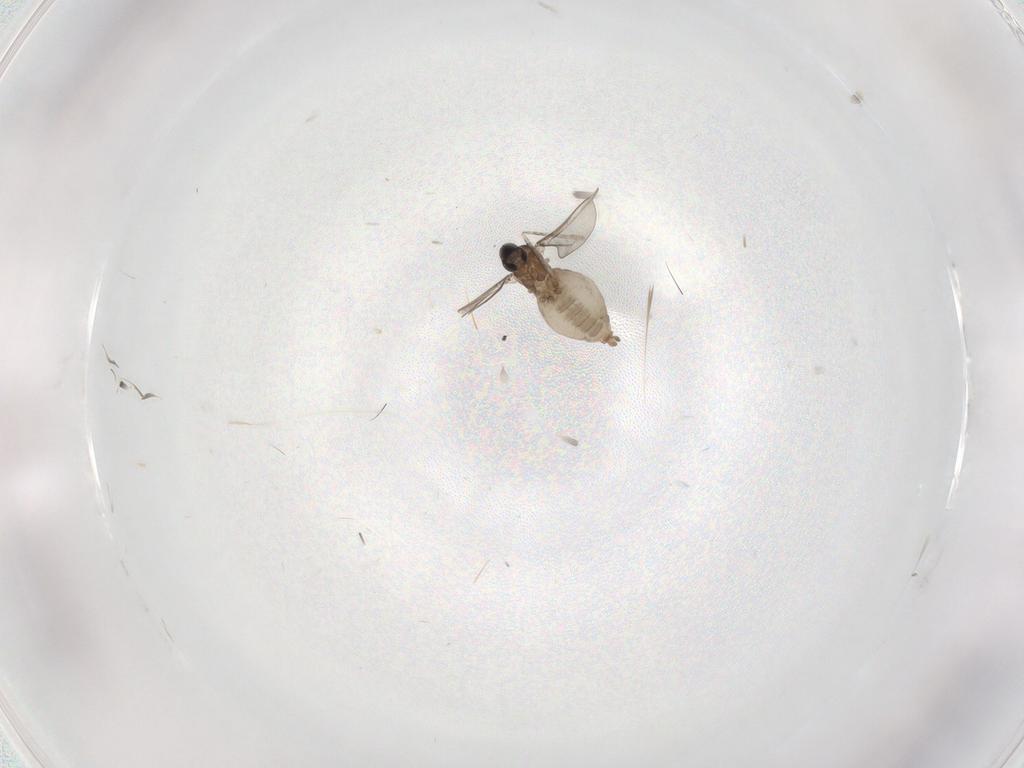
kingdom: Animalia
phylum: Arthropoda
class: Insecta
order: Diptera
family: Cecidomyiidae
